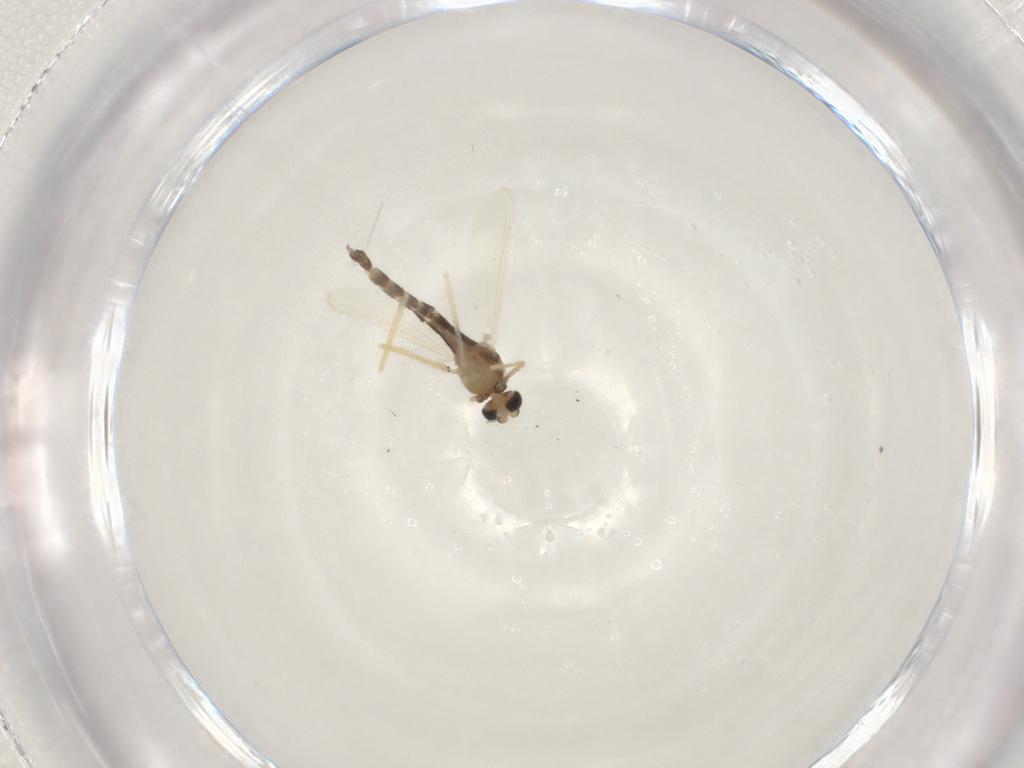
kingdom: Animalia
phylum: Arthropoda
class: Insecta
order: Diptera
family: Chironomidae
